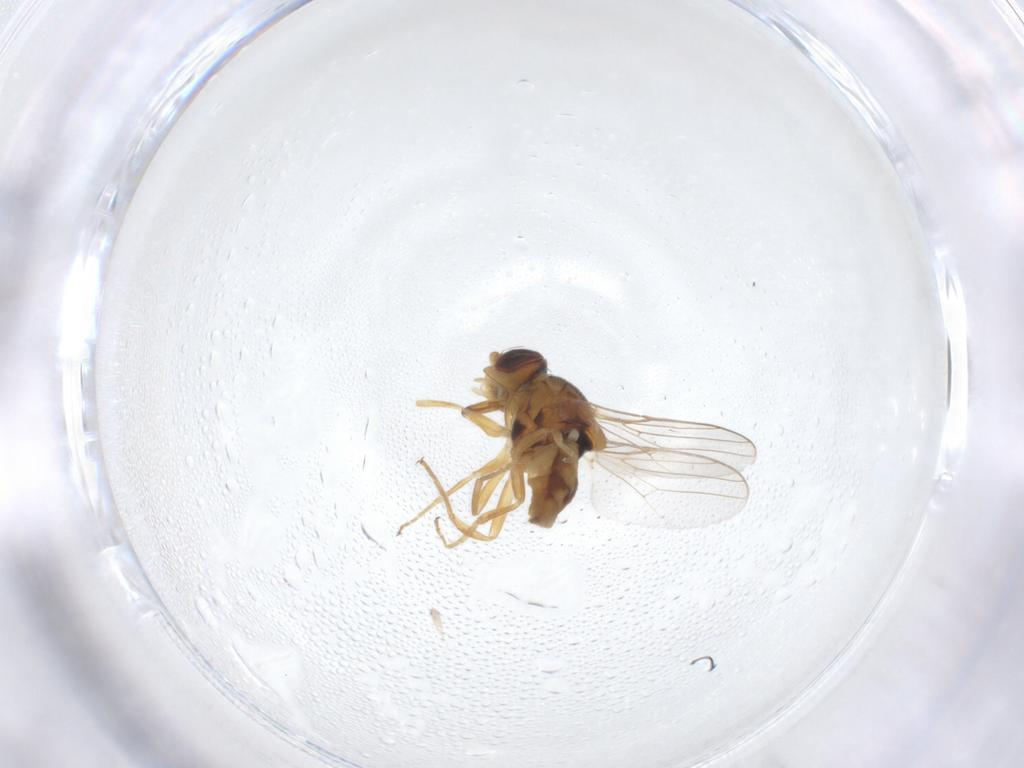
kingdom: Animalia
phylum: Arthropoda
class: Insecta
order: Diptera
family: Chloropidae
